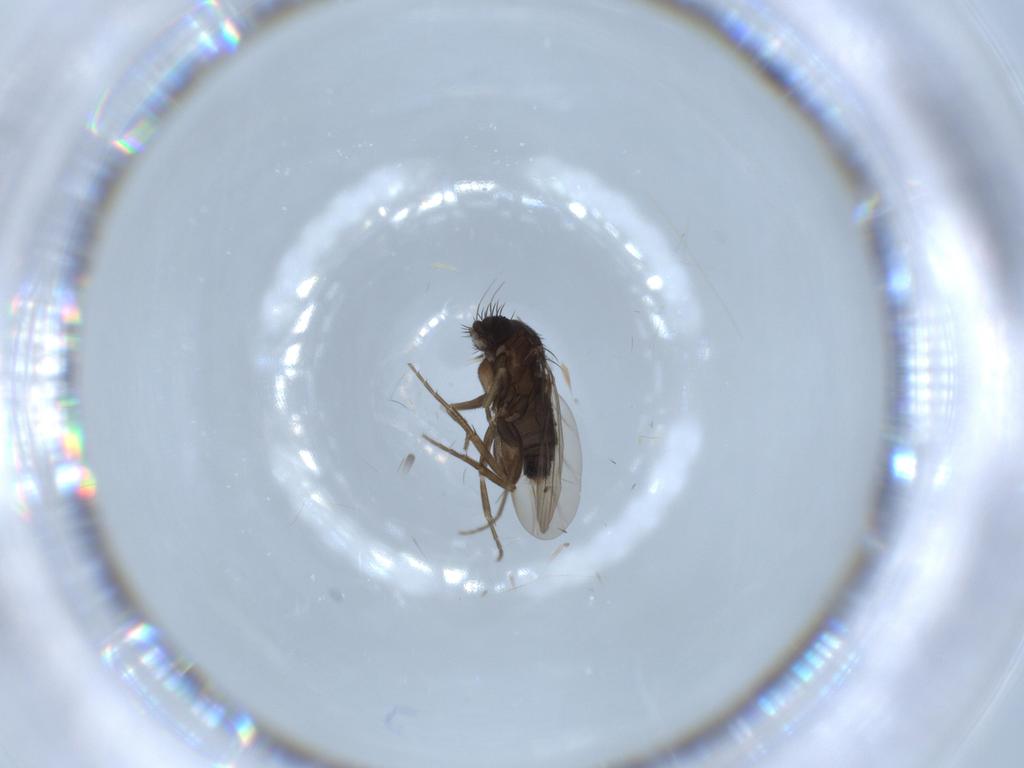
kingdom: Animalia
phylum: Arthropoda
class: Insecta
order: Diptera
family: Phoridae
